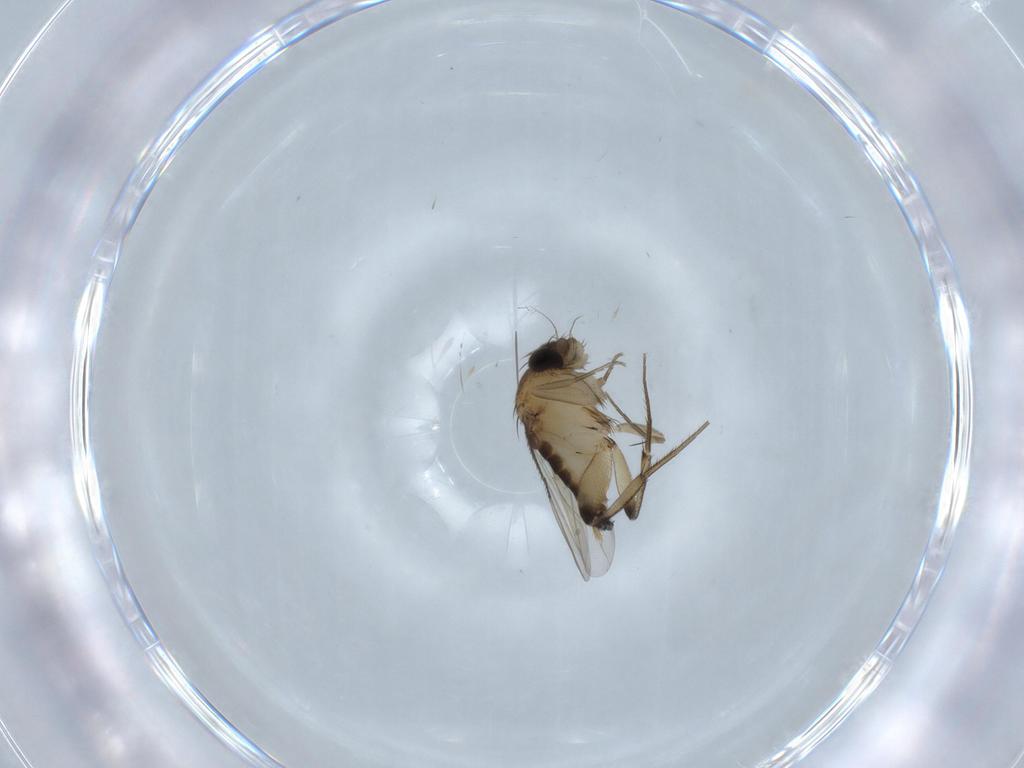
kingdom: Animalia
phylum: Arthropoda
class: Insecta
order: Diptera
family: Phoridae
